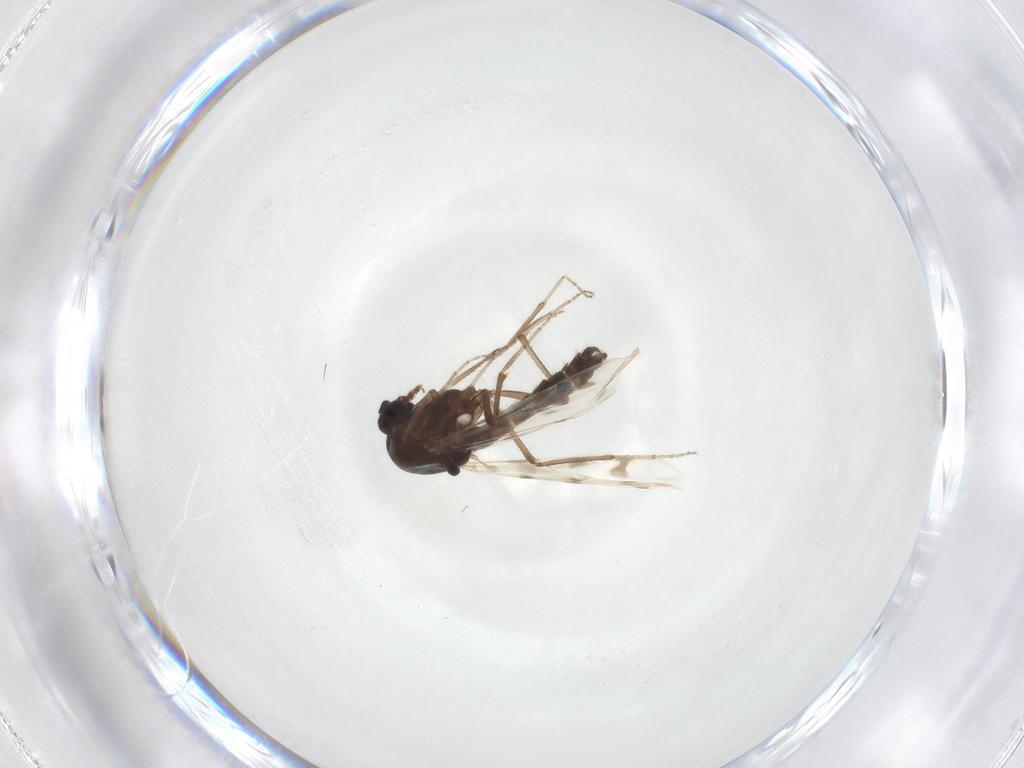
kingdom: Animalia
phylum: Arthropoda
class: Insecta
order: Diptera
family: Ceratopogonidae
